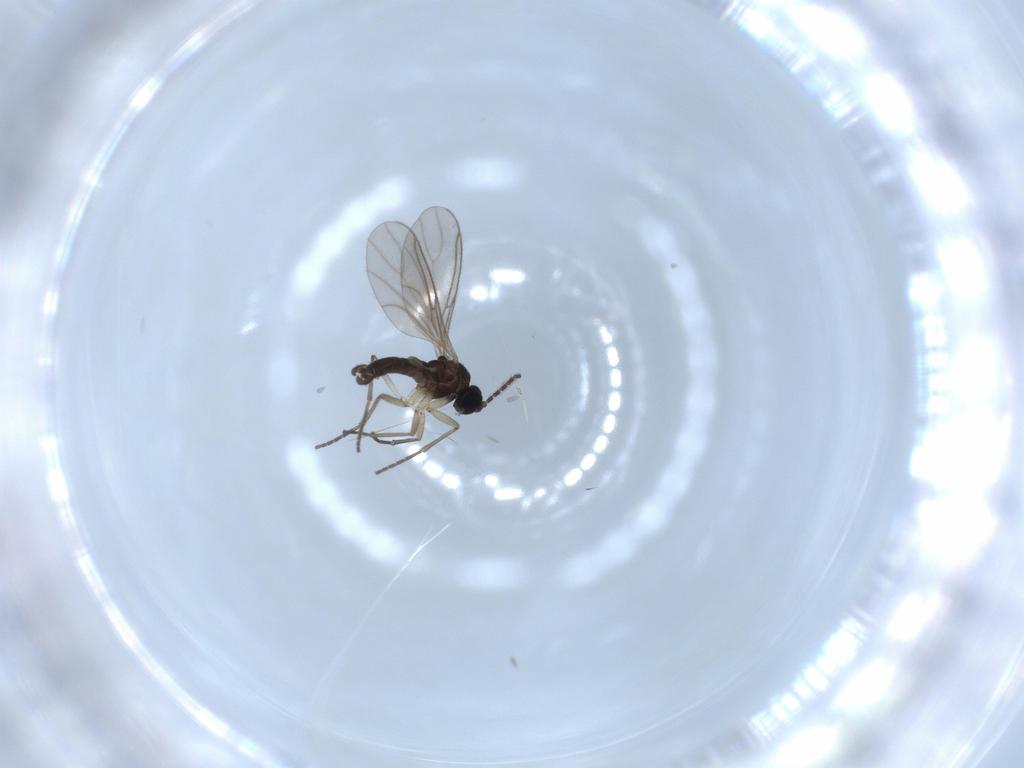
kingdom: Animalia
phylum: Arthropoda
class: Insecta
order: Diptera
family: Sciaridae
